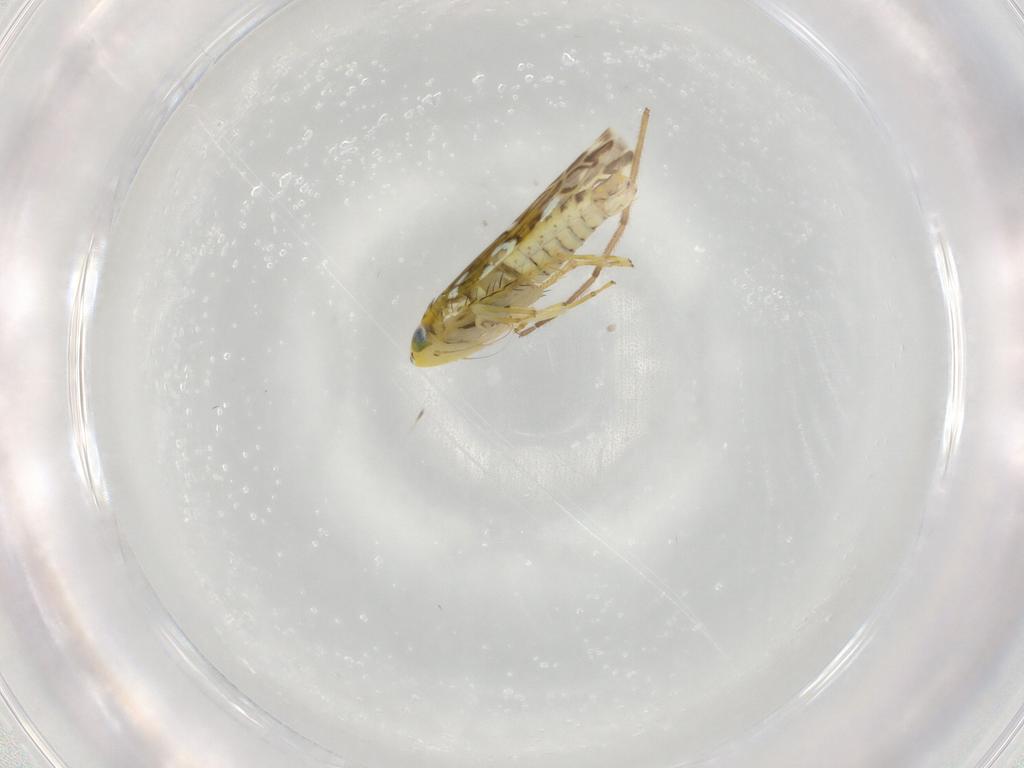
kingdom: Animalia
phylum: Arthropoda
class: Insecta
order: Hemiptera
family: Cicadellidae
